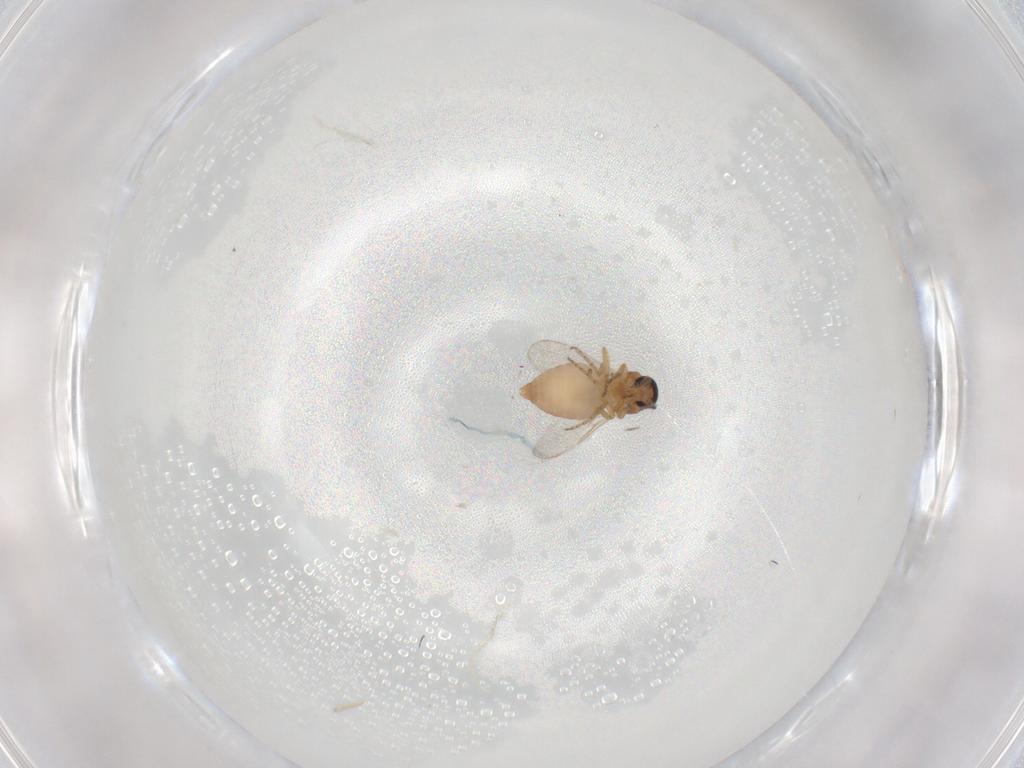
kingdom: Animalia
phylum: Arthropoda
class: Insecta
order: Diptera
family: Ceratopogonidae
